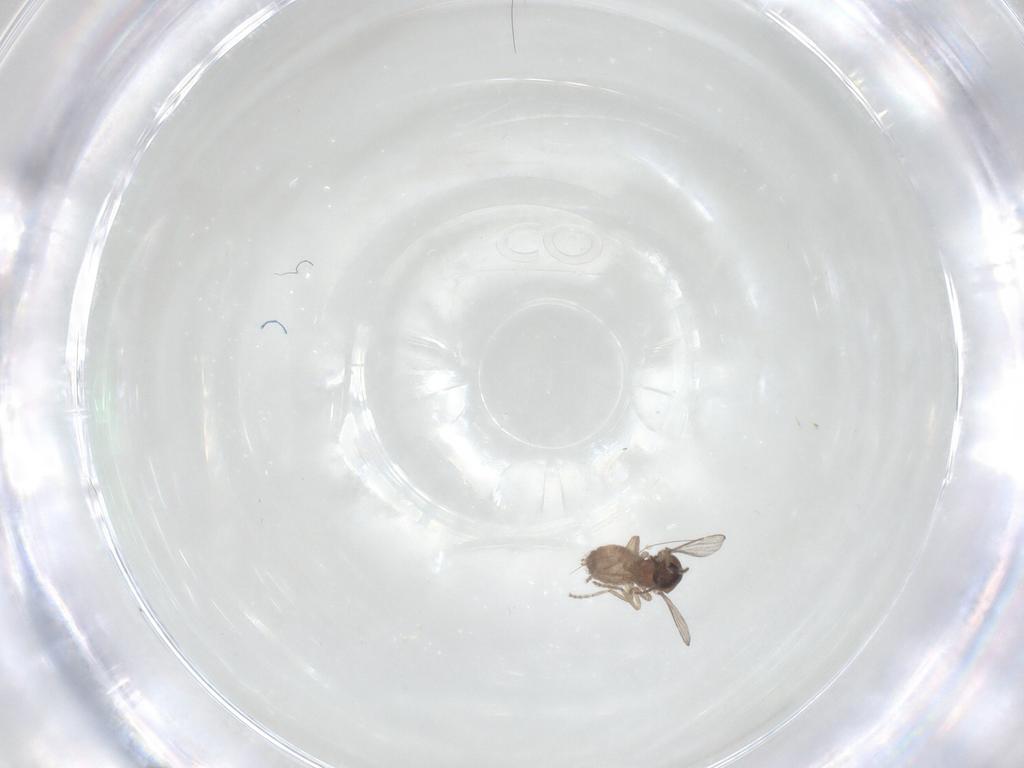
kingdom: Animalia
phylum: Arthropoda
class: Insecta
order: Diptera
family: Ceratopogonidae
